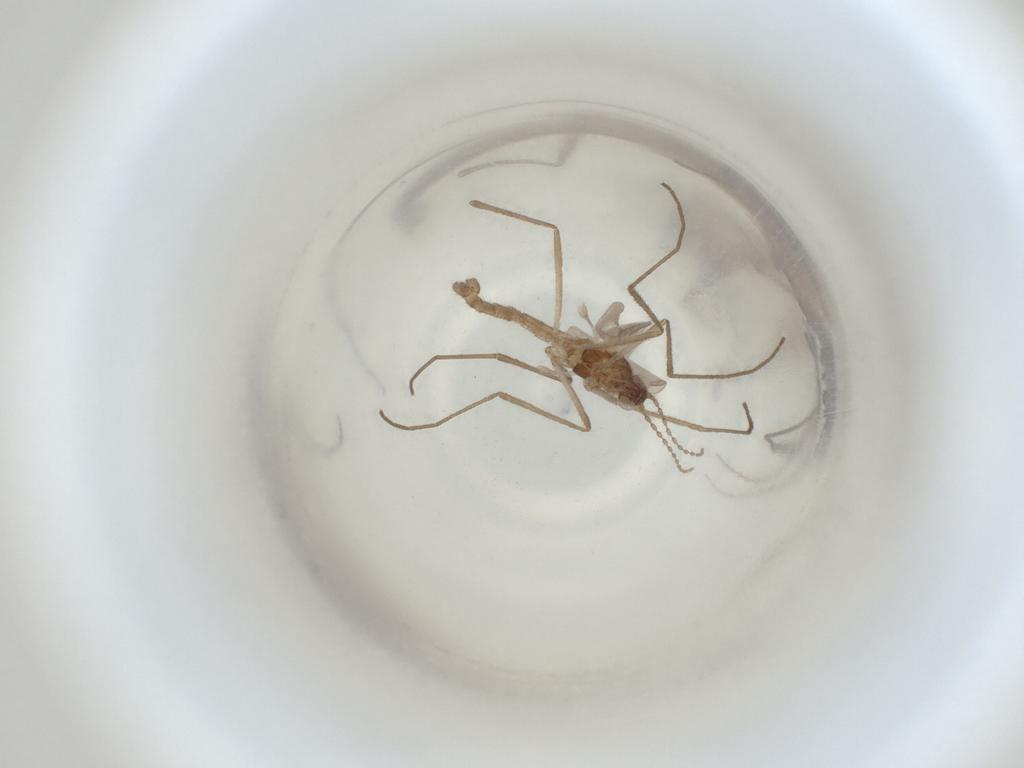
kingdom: Animalia
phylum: Arthropoda
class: Insecta
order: Diptera
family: Cecidomyiidae
